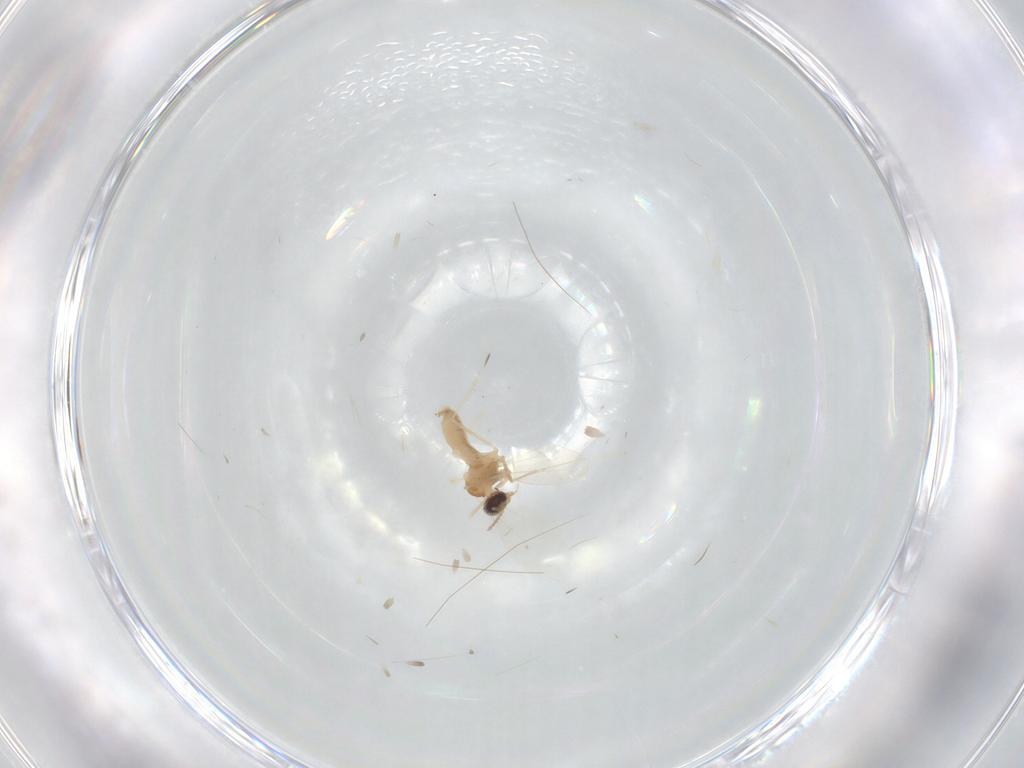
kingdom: Animalia
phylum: Arthropoda
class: Insecta
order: Diptera
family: Cecidomyiidae
